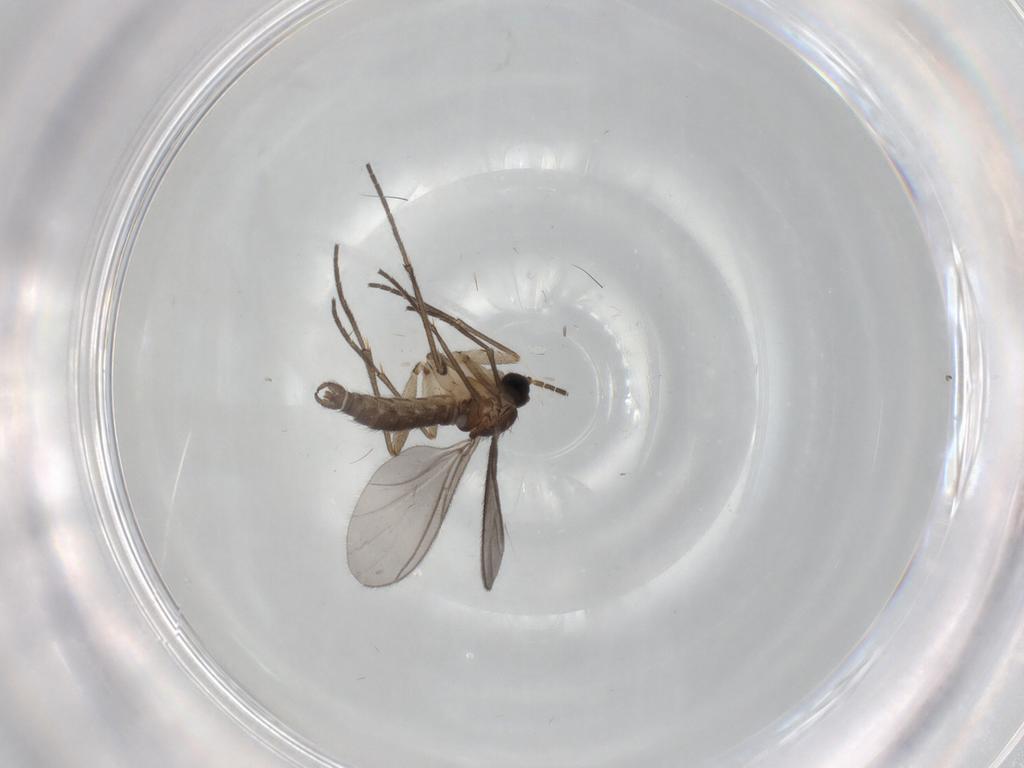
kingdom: Animalia
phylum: Arthropoda
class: Insecta
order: Diptera
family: Sciaridae
